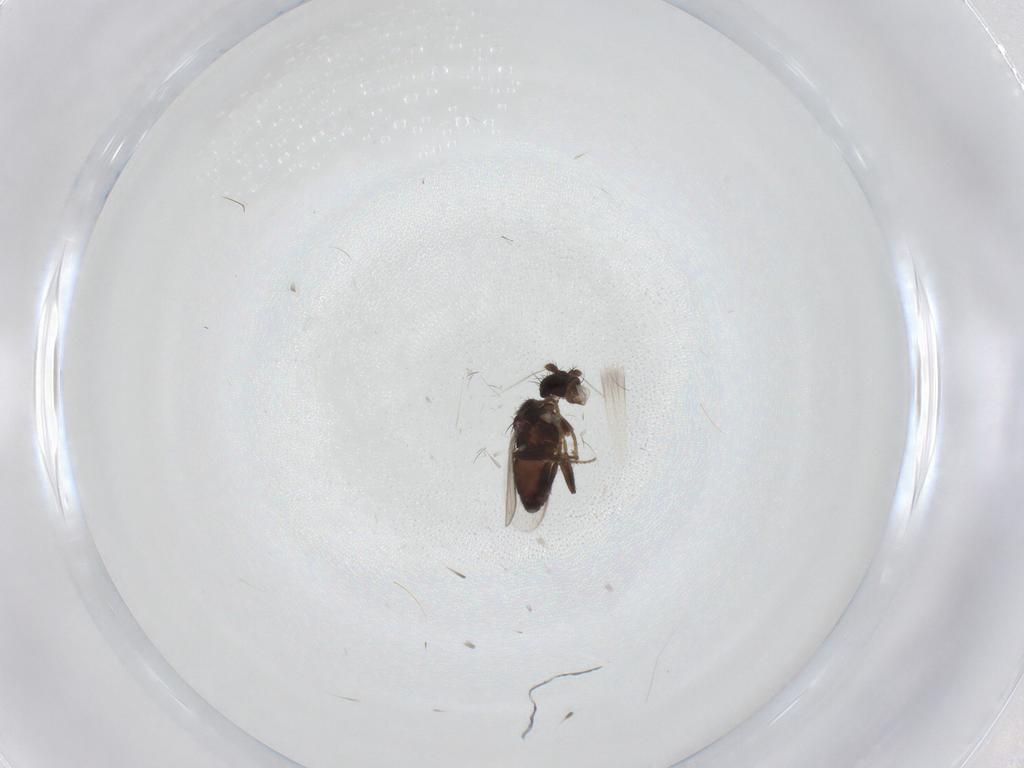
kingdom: Animalia
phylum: Arthropoda
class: Insecta
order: Diptera
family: Sphaeroceridae
